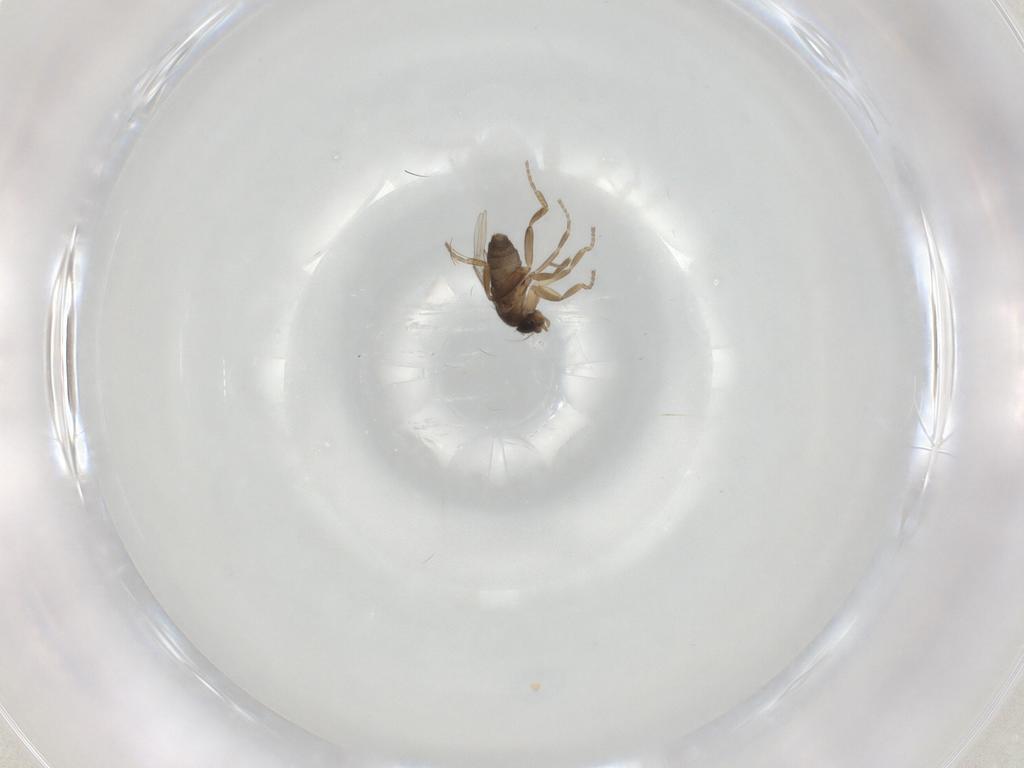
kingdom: Animalia
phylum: Arthropoda
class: Insecta
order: Diptera
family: Phoridae
